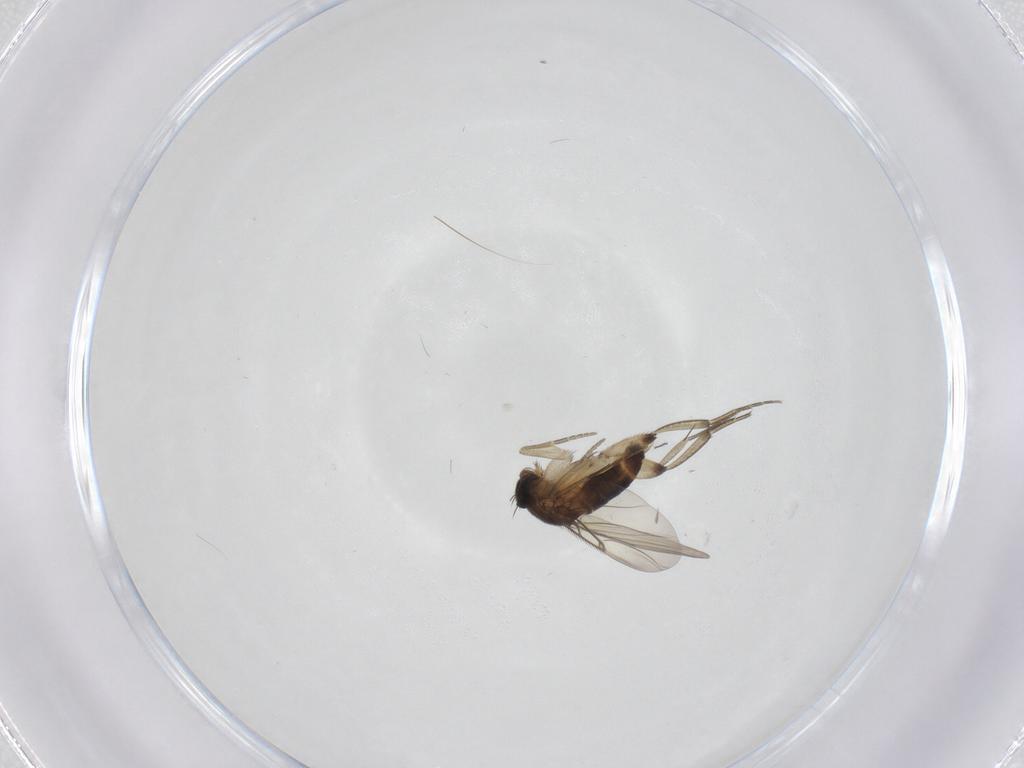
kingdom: Animalia
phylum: Arthropoda
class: Insecta
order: Diptera
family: Phoridae
